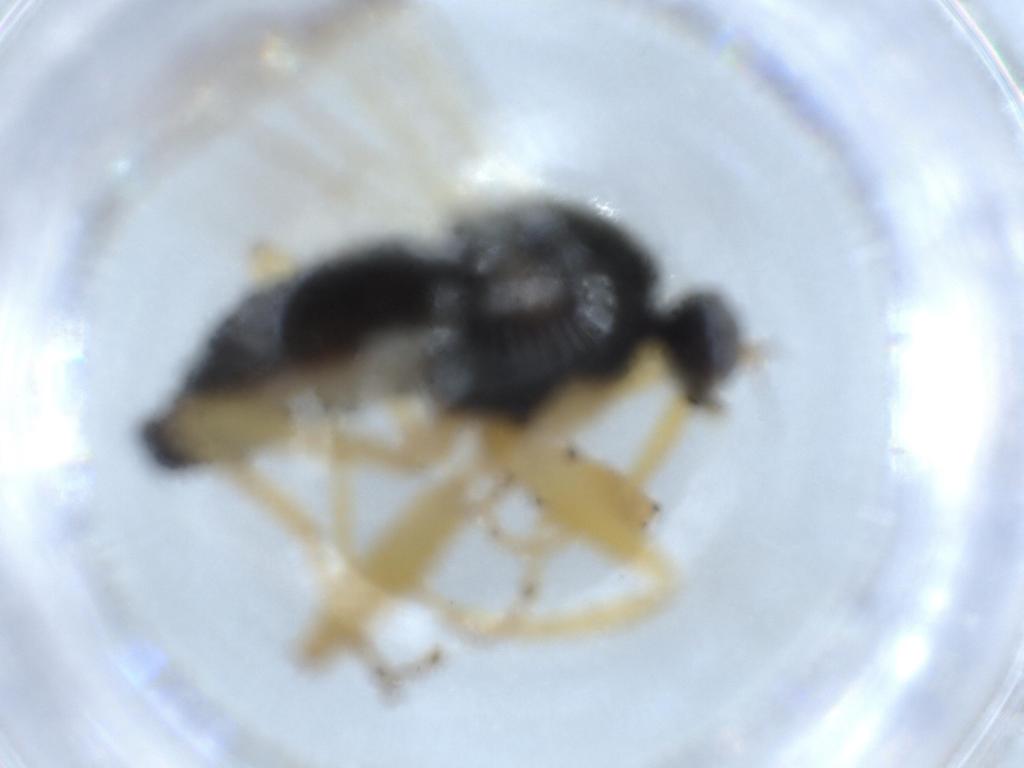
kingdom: Animalia
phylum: Arthropoda
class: Insecta
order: Diptera
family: Hybotidae
